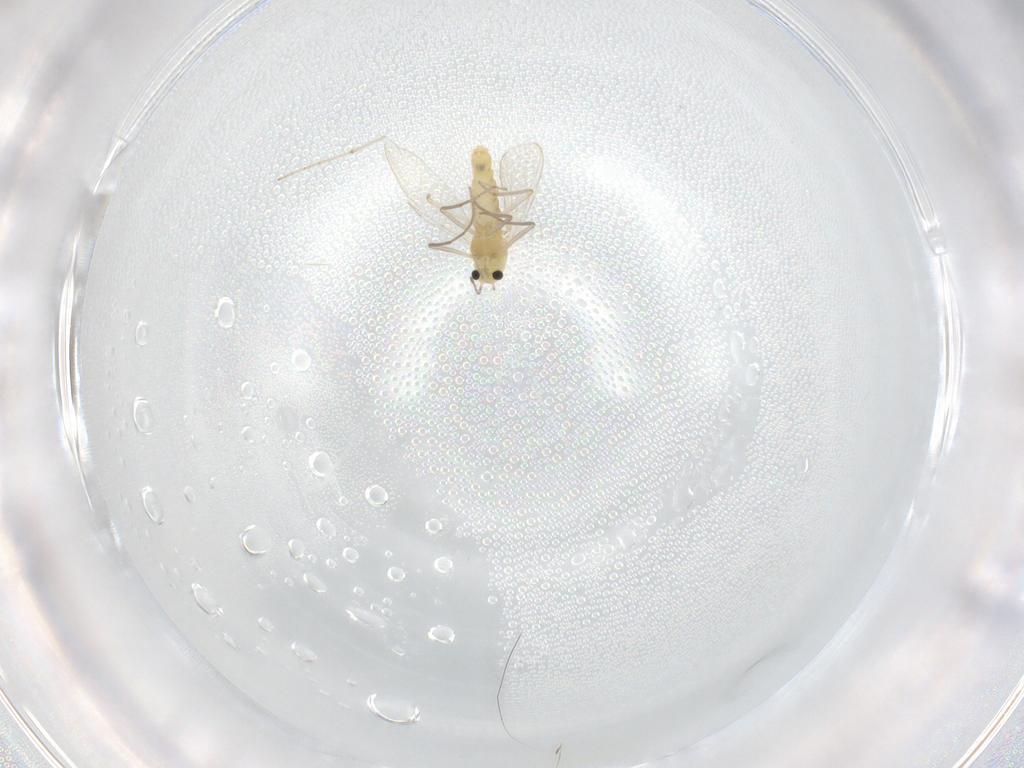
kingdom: Animalia
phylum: Arthropoda
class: Insecta
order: Diptera
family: Chironomidae
